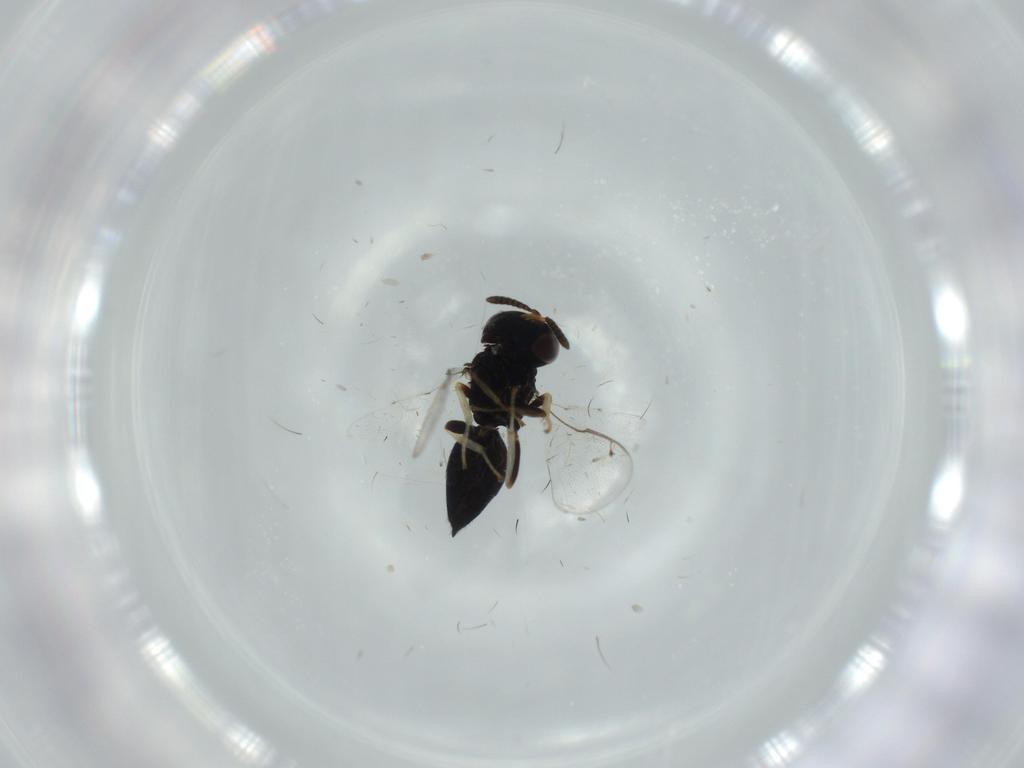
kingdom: Animalia
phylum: Arthropoda
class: Insecta
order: Hymenoptera
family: Pteromalidae
